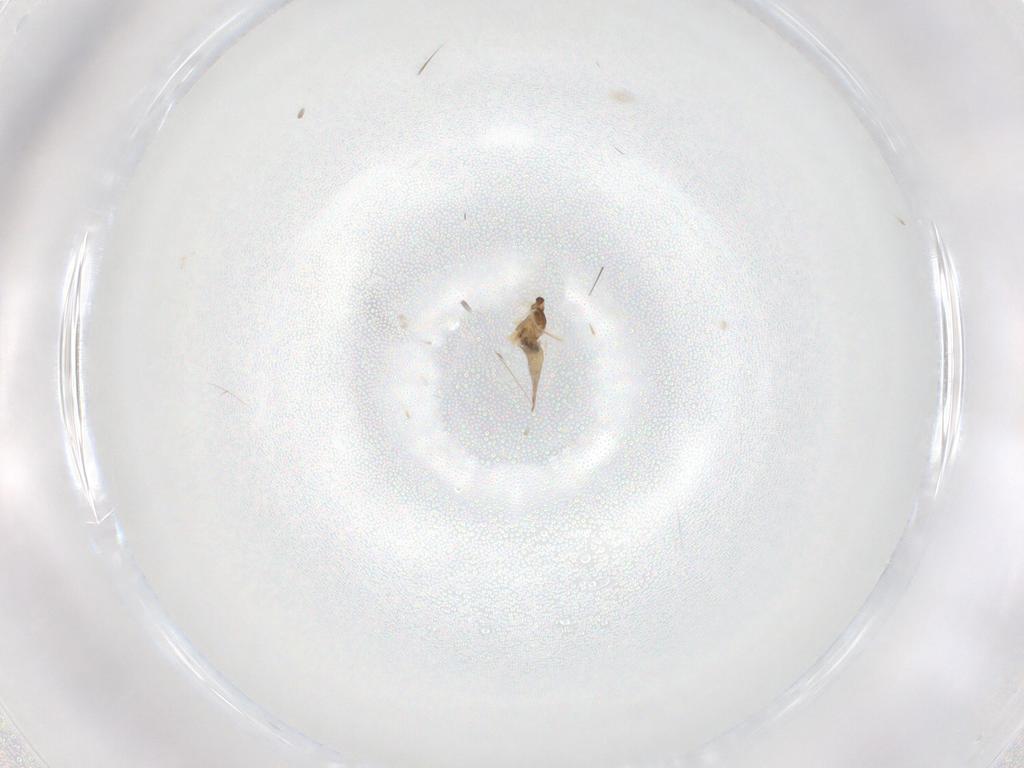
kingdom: Animalia
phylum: Arthropoda
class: Insecta
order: Diptera
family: Cecidomyiidae
